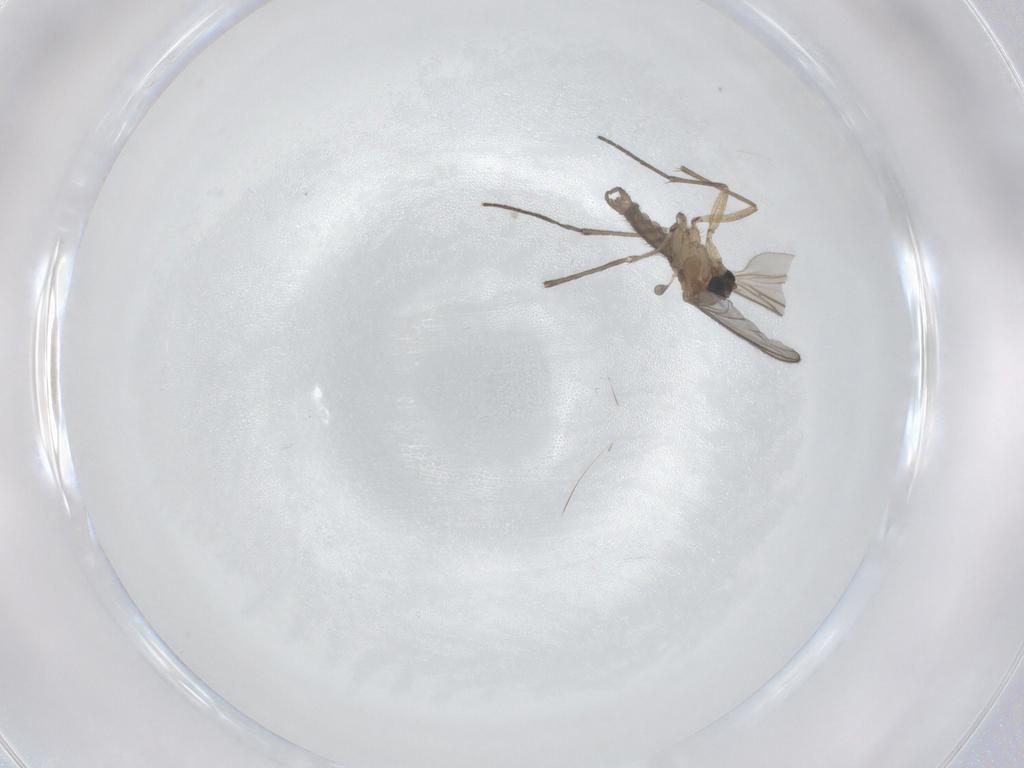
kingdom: Animalia
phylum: Arthropoda
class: Insecta
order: Diptera
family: Sciaridae
